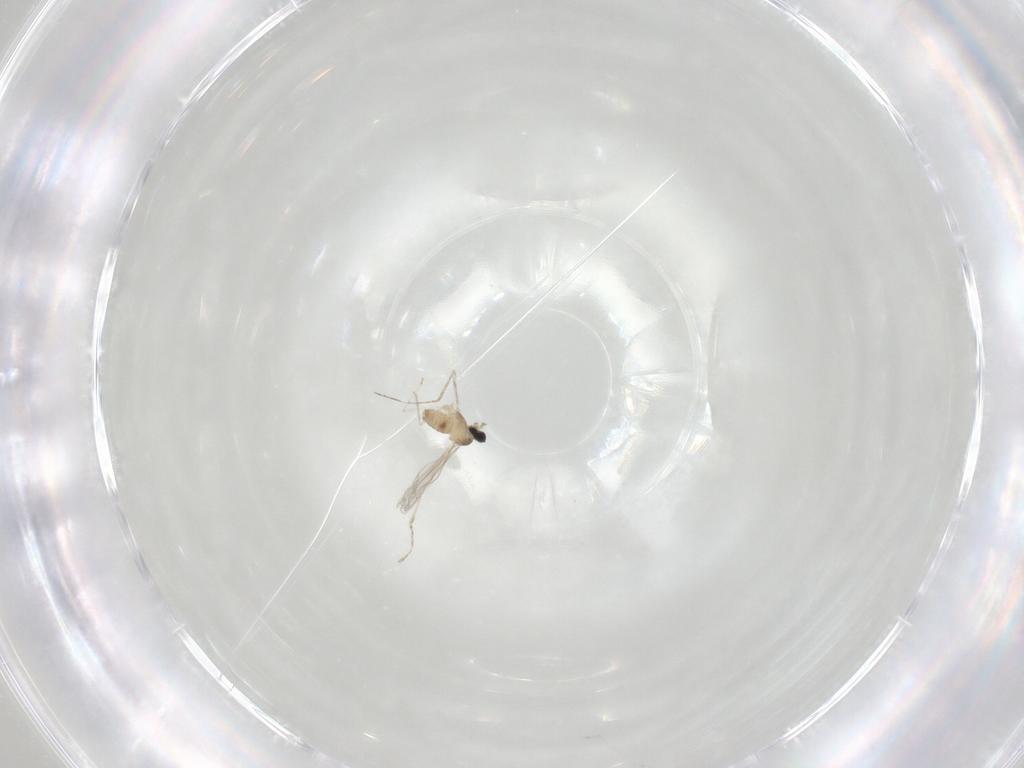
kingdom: Animalia
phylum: Arthropoda
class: Insecta
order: Diptera
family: Cecidomyiidae
